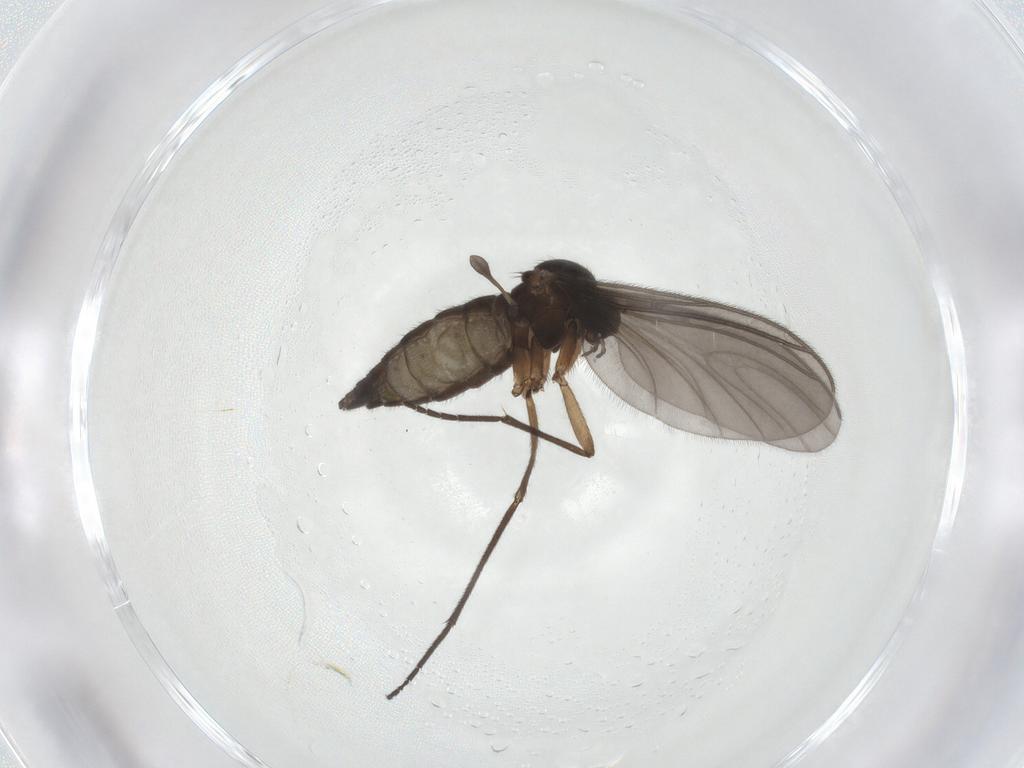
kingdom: Animalia
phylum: Arthropoda
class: Insecta
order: Diptera
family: Sciaridae
